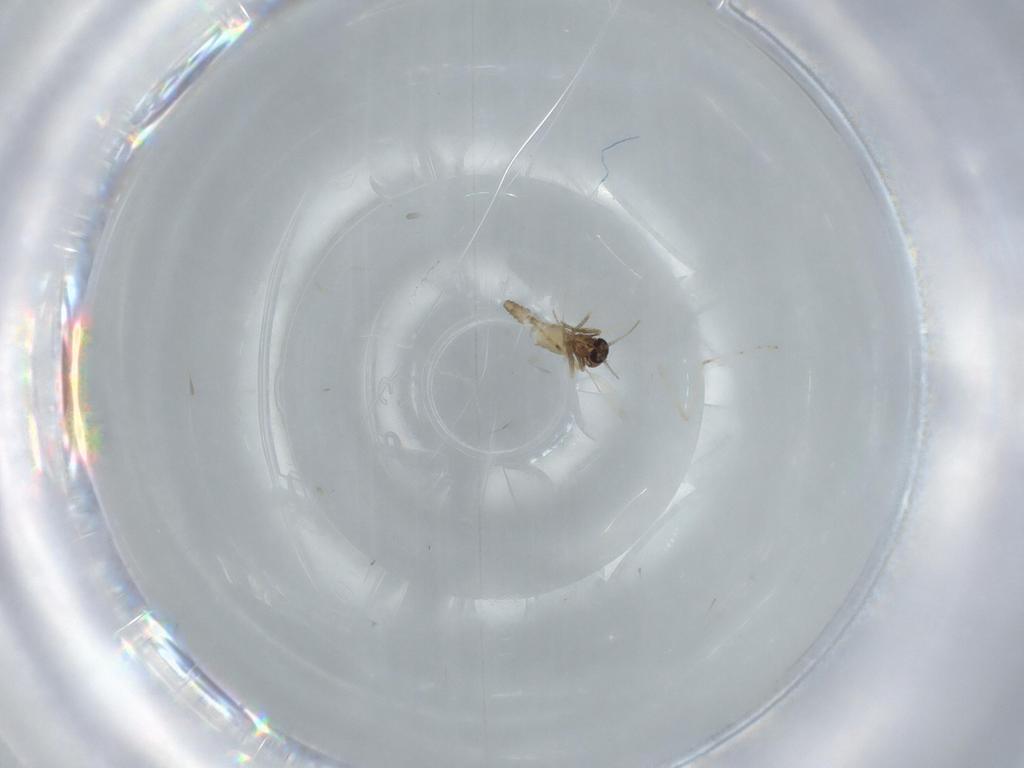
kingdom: Animalia
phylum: Arthropoda
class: Insecta
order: Diptera
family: Ceratopogonidae
